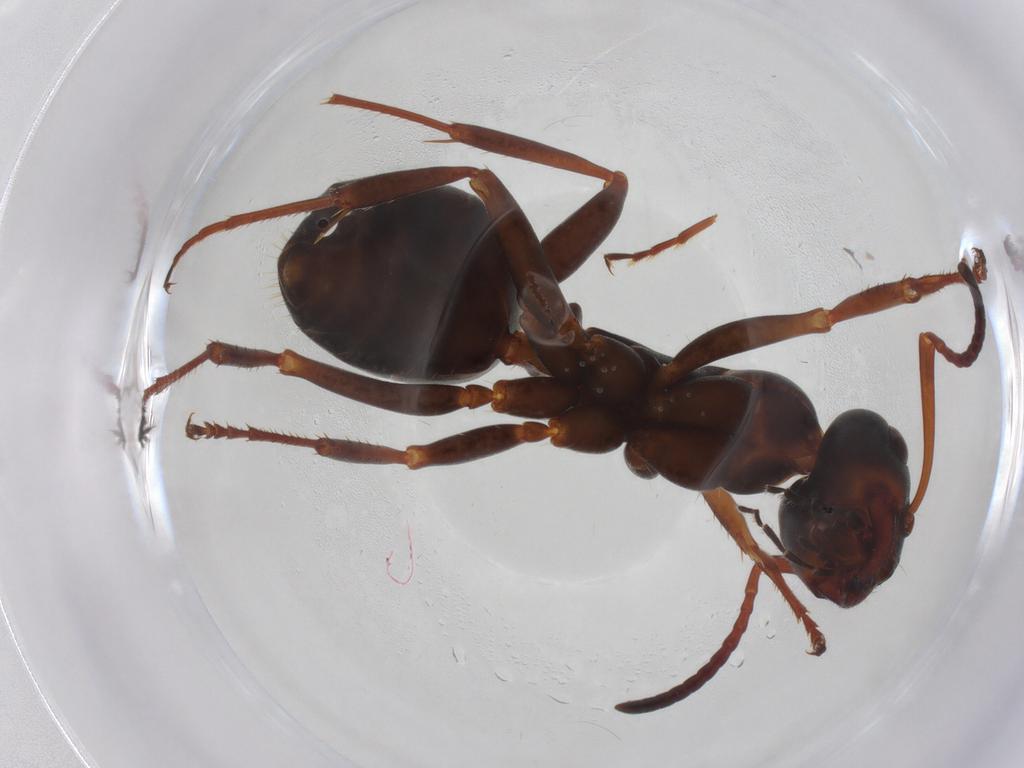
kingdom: Animalia
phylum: Arthropoda
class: Insecta
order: Hymenoptera
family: Formicidae
